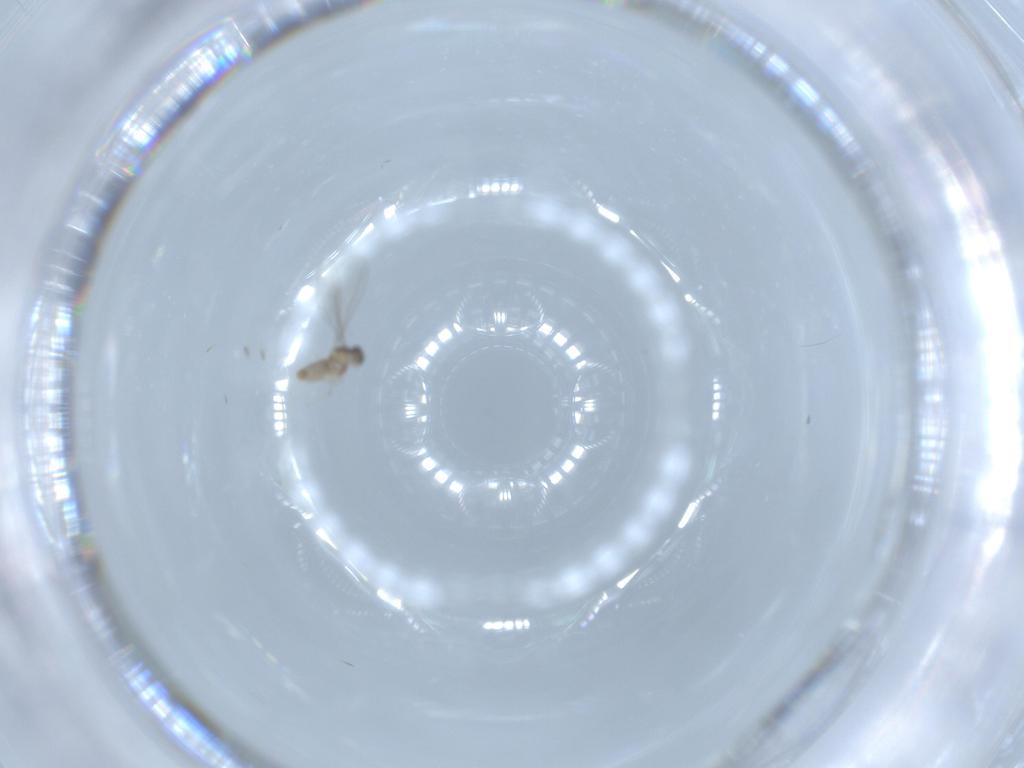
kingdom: Animalia
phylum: Arthropoda
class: Insecta
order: Diptera
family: Cecidomyiidae
